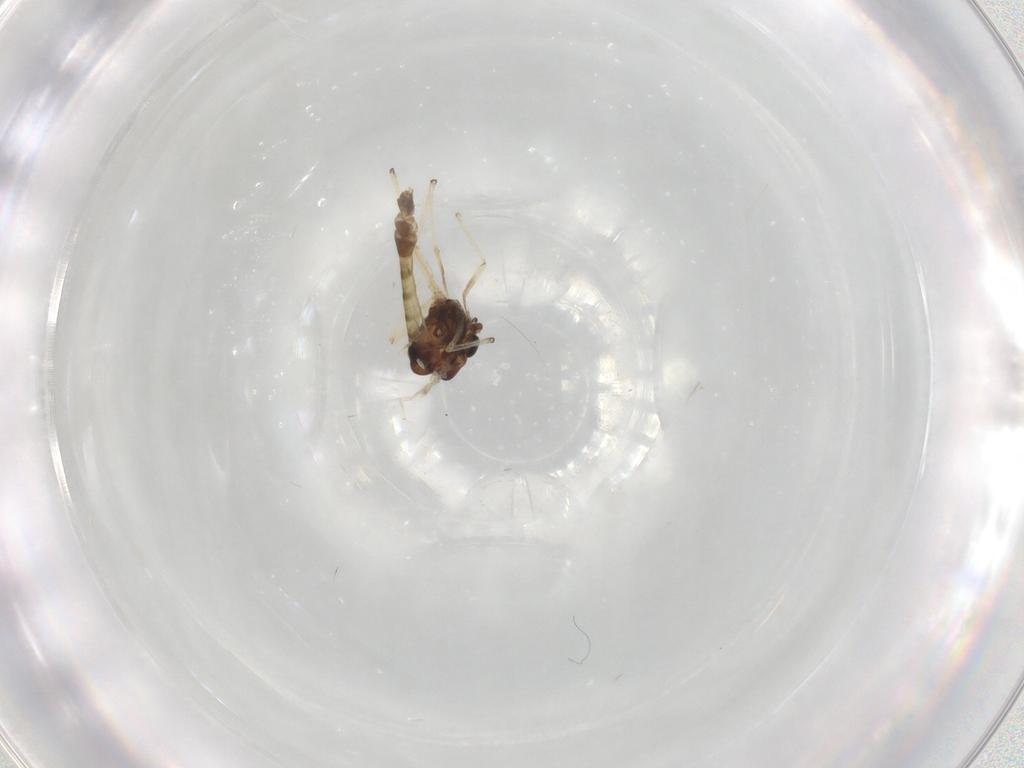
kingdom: Animalia
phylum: Arthropoda
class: Insecta
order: Diptera
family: Chironomidae
